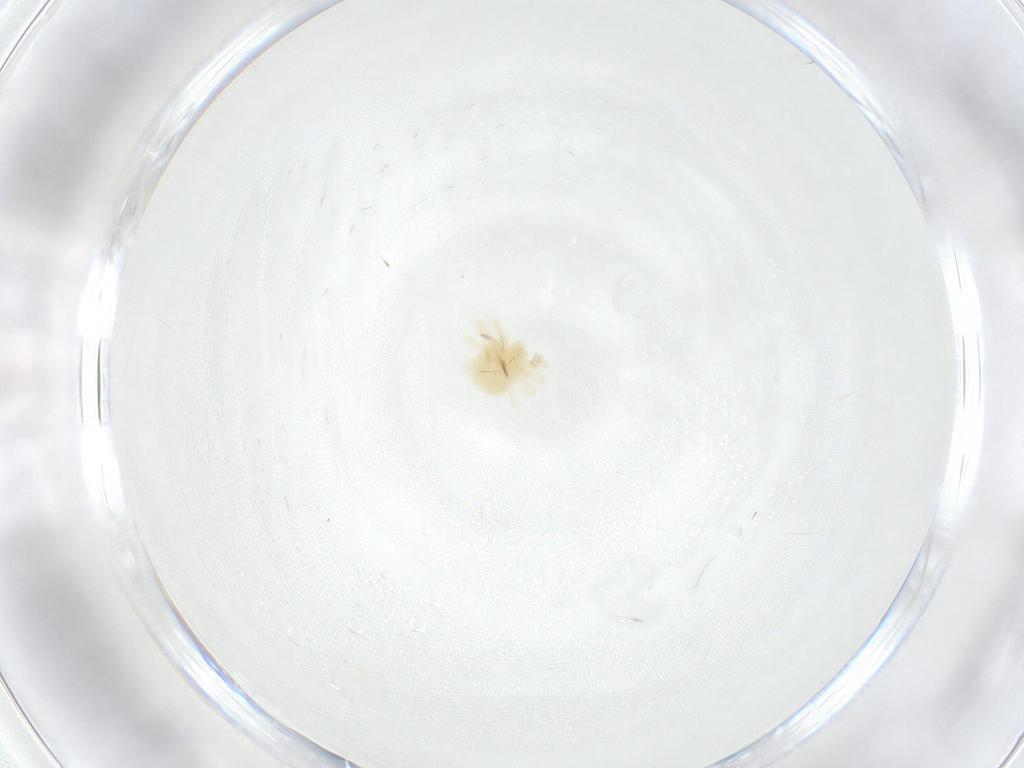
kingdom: Animalia
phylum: Arthropoda
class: Arachnida
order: Trombidiformes
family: Anystidae
